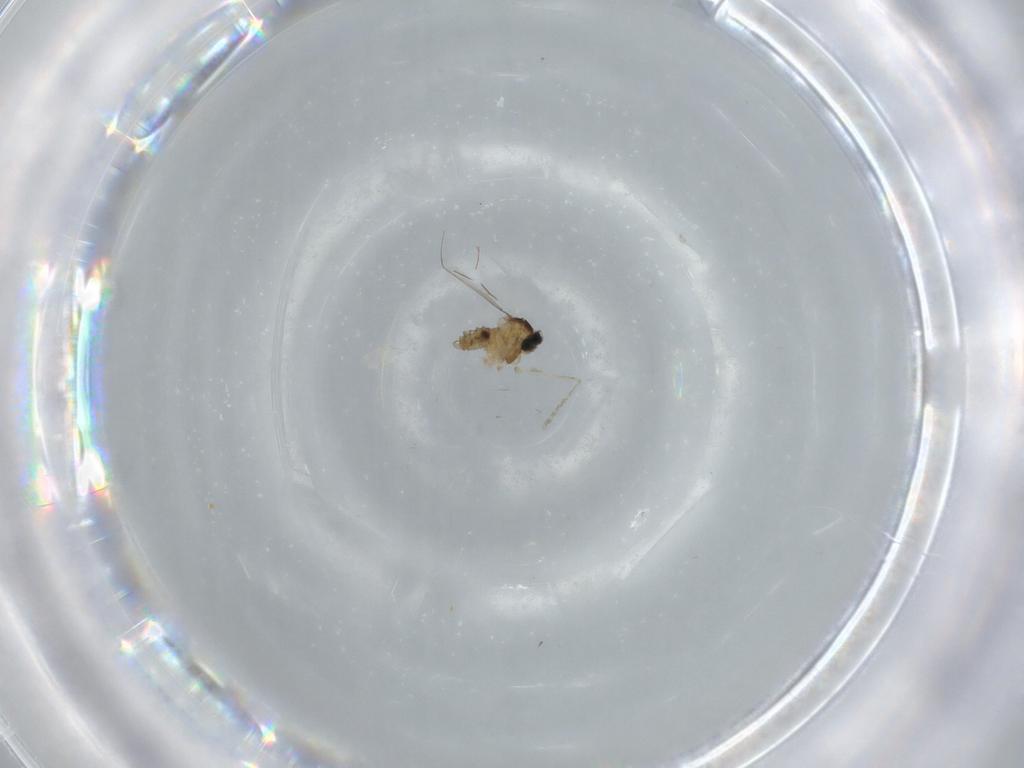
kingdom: Animalia
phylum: Arthropoda
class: Insecta
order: Diptera
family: Cecidomyiidae
